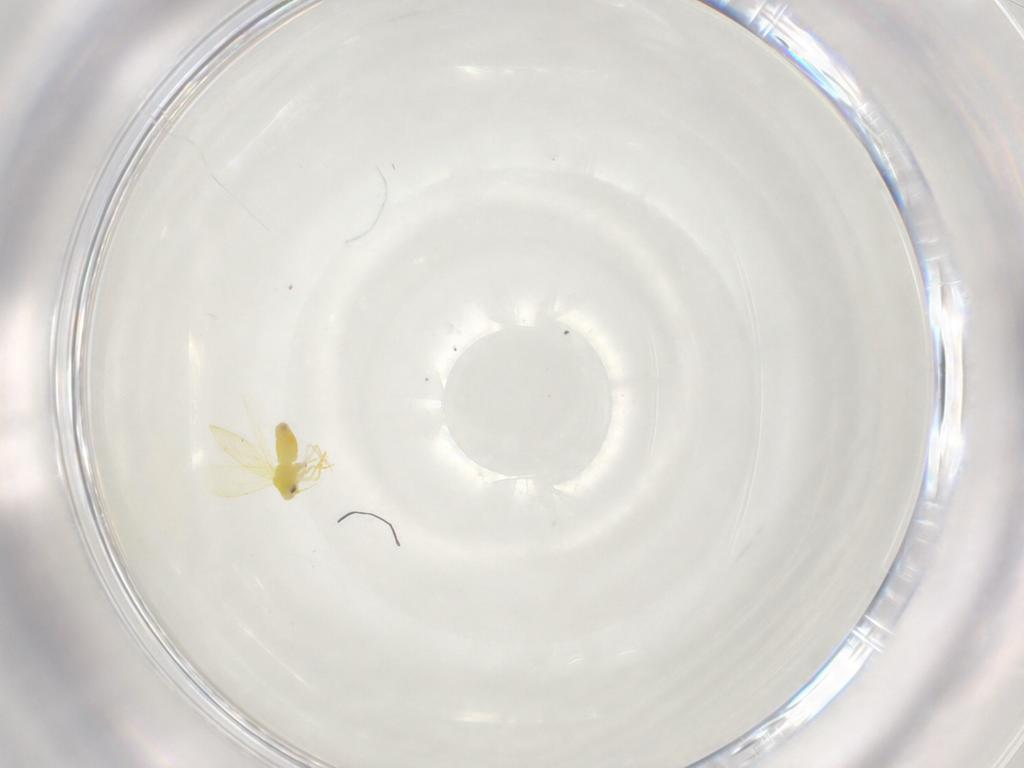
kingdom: Animalia
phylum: Arthropoda
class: Insecta
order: Hemiptera
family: Aleyrodidae
